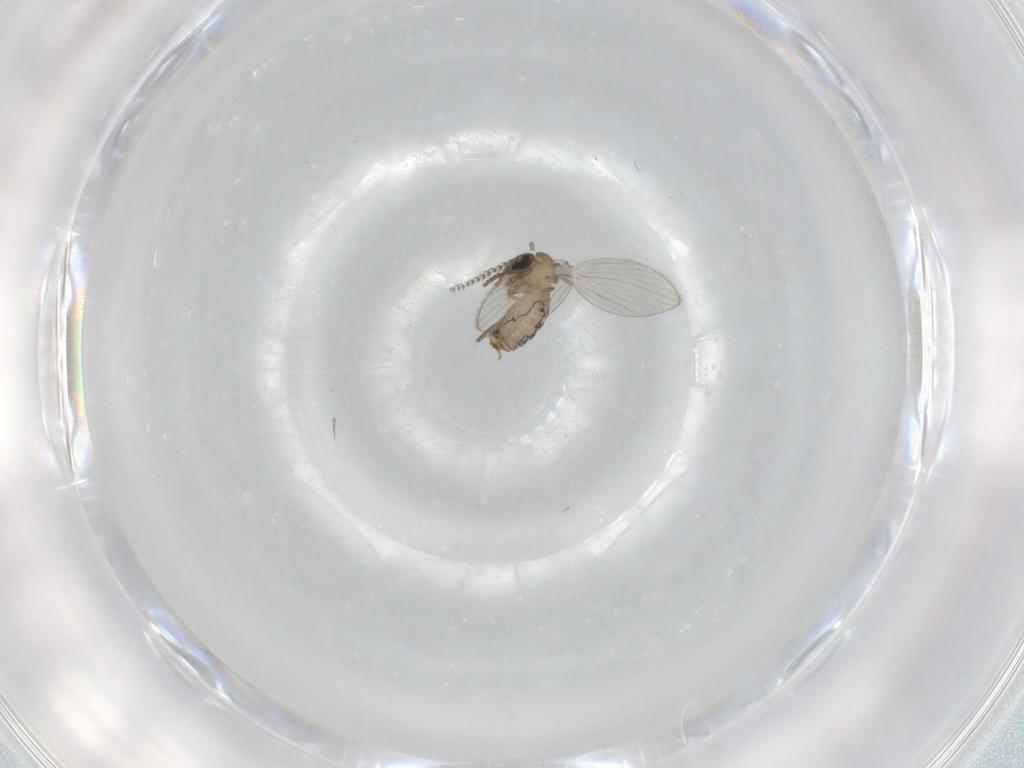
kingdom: Animalia
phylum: Arthropoda
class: Insecta
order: Diptera
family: Psychodidae
